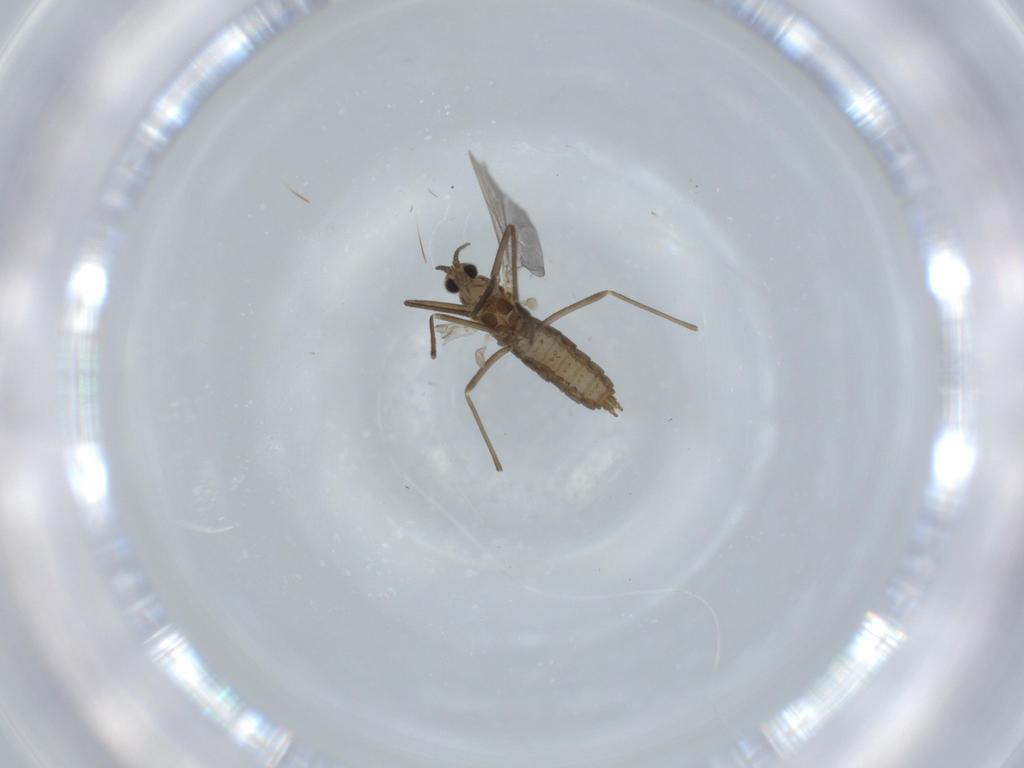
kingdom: Animalia
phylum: Arthropoda
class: Insecta
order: Diptera
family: Cecidomyiidae
